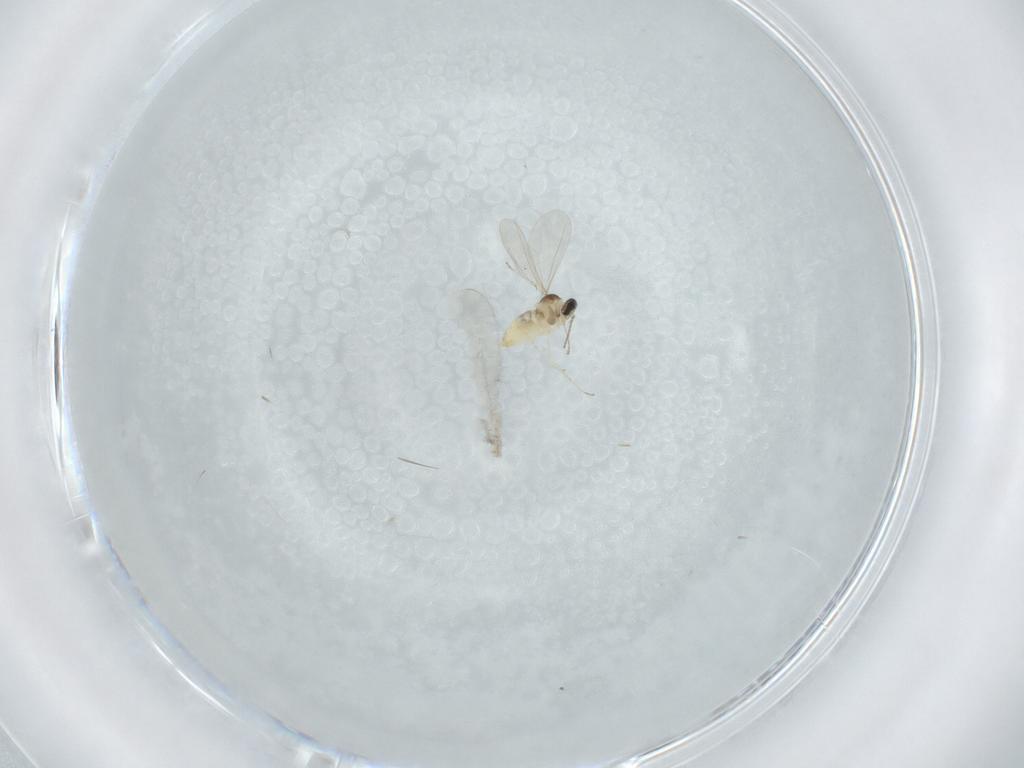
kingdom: Animalia
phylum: Arthropoda
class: Insecta
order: Diptera
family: Cecidomyiidae
